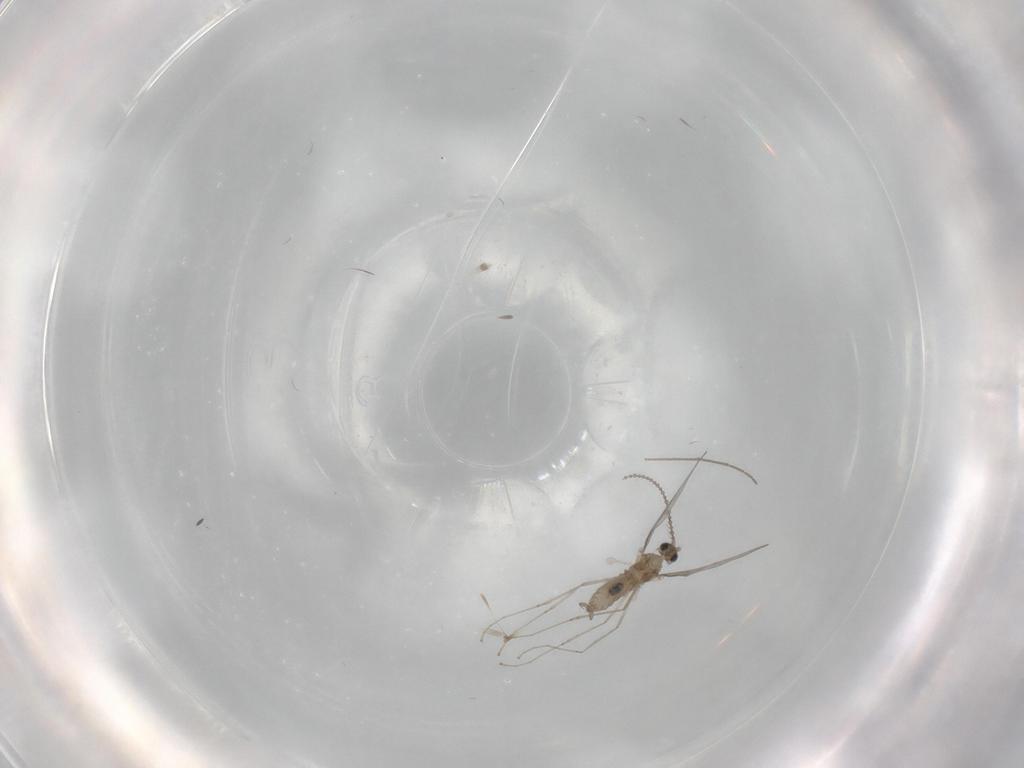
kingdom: Animalia
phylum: Arthropoda
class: Insecta
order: Diptera
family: Cecidomyiidae
